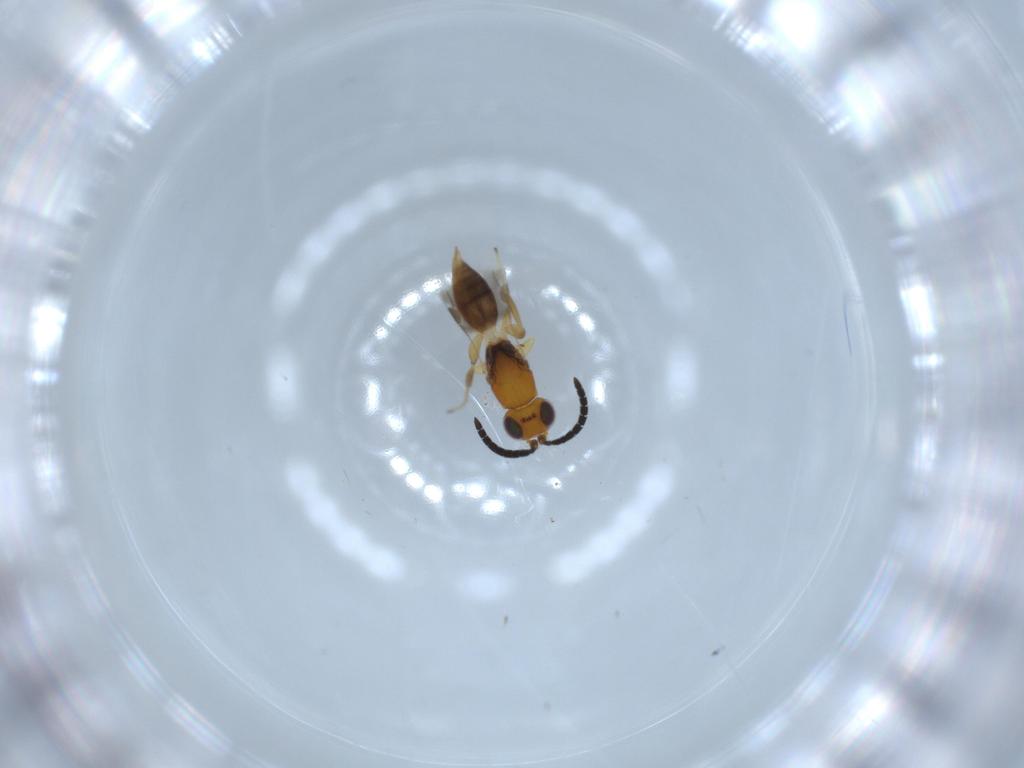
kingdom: Animalia
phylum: Arthropoda
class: Insecta
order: Hymenoptera
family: Megaspilidae
